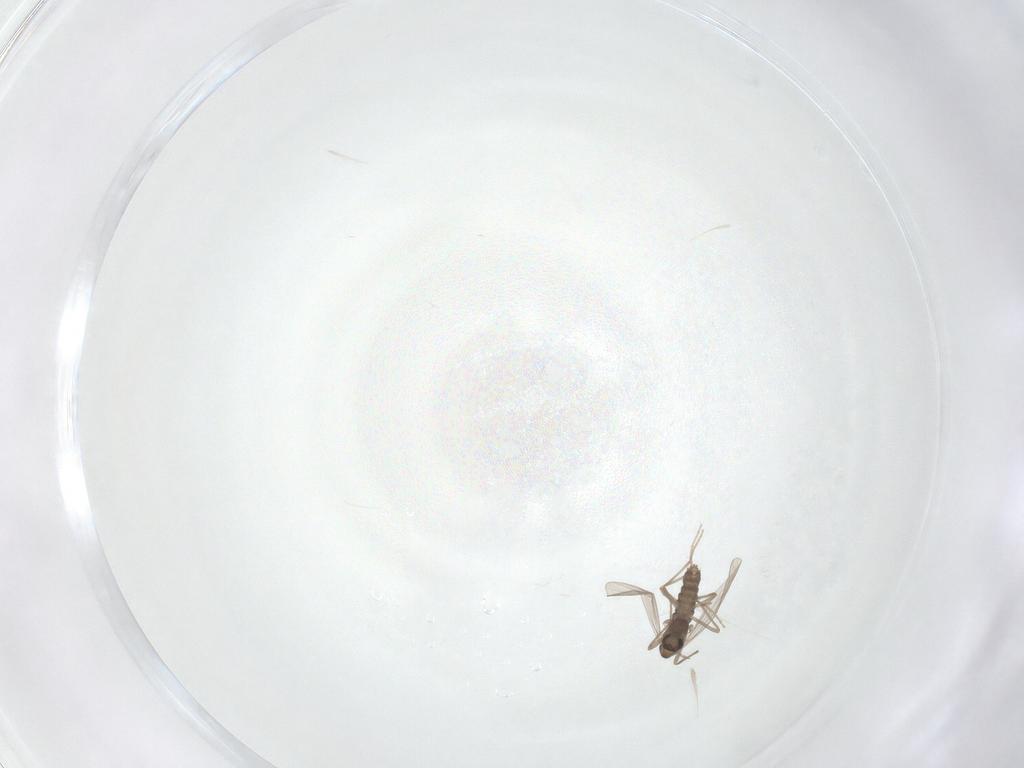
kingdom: Animalia
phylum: Arthropoda
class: Insecta
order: Diptera
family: Chironomidae
